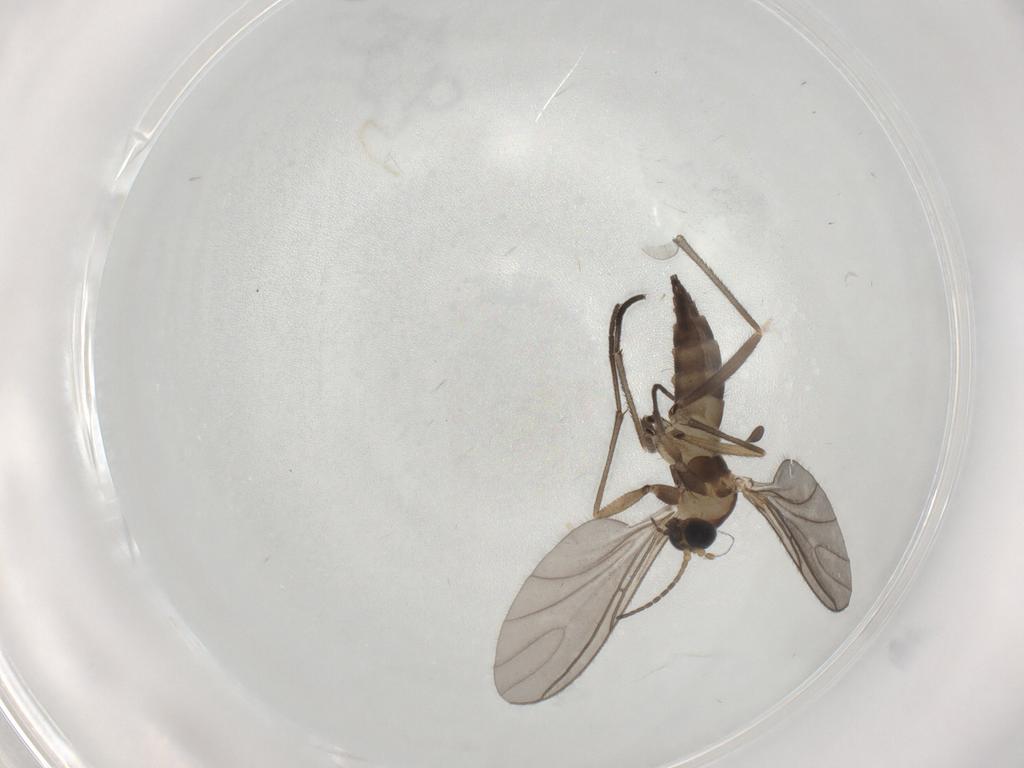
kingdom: Animalia
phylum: Arthropoda
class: Insecta
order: Diptera
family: Sciaridae
